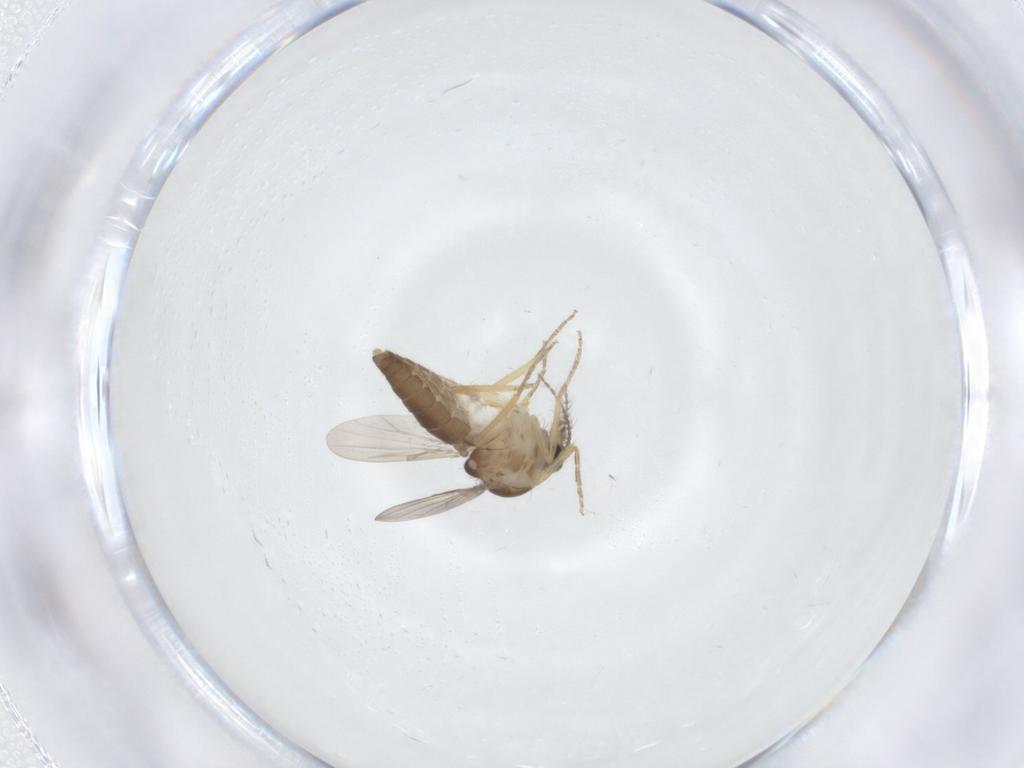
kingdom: Animalia
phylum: Arthropoda
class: Insecta
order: Diptera
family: Ceratopogonidae
